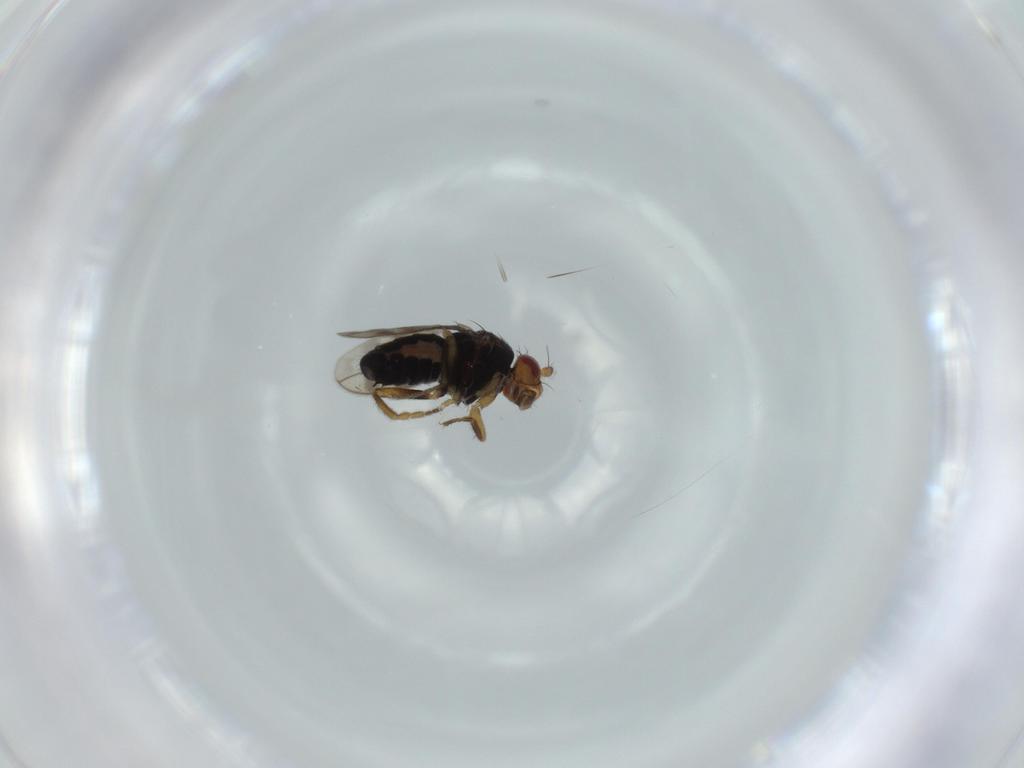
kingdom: Animalia
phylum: Arthropoda
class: Insecta
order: Diptera
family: Sphaeroceridae
